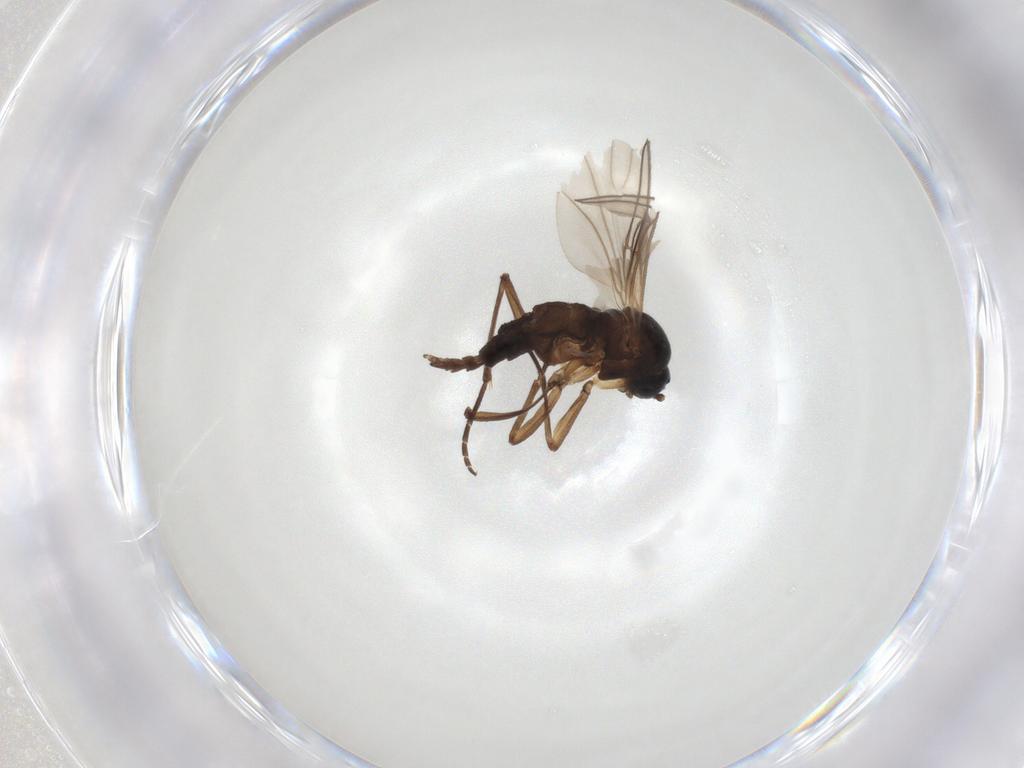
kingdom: Animalia
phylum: Arthropoda
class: Insecta
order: Diptera
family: Sciaridae
